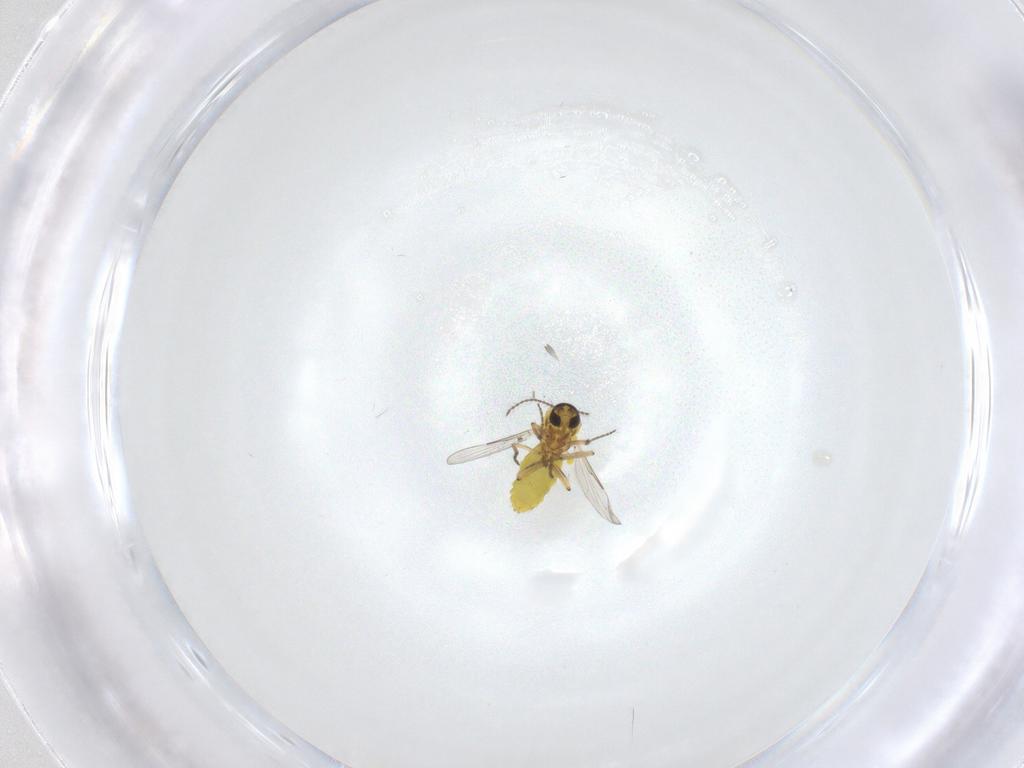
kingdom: Animalia
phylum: Arthropoda
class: Insecta
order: Diptera
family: Ceratopogonidae
